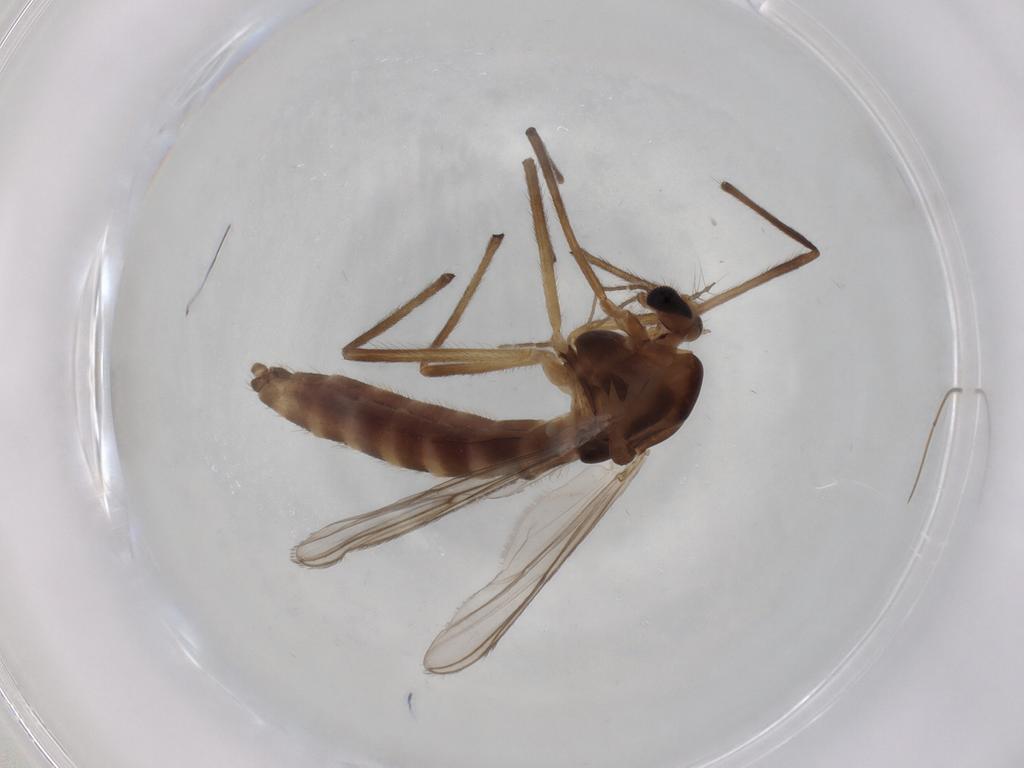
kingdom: Animalia
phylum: Arthropoda
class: Insecta
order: Diptera
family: Chironomidae
